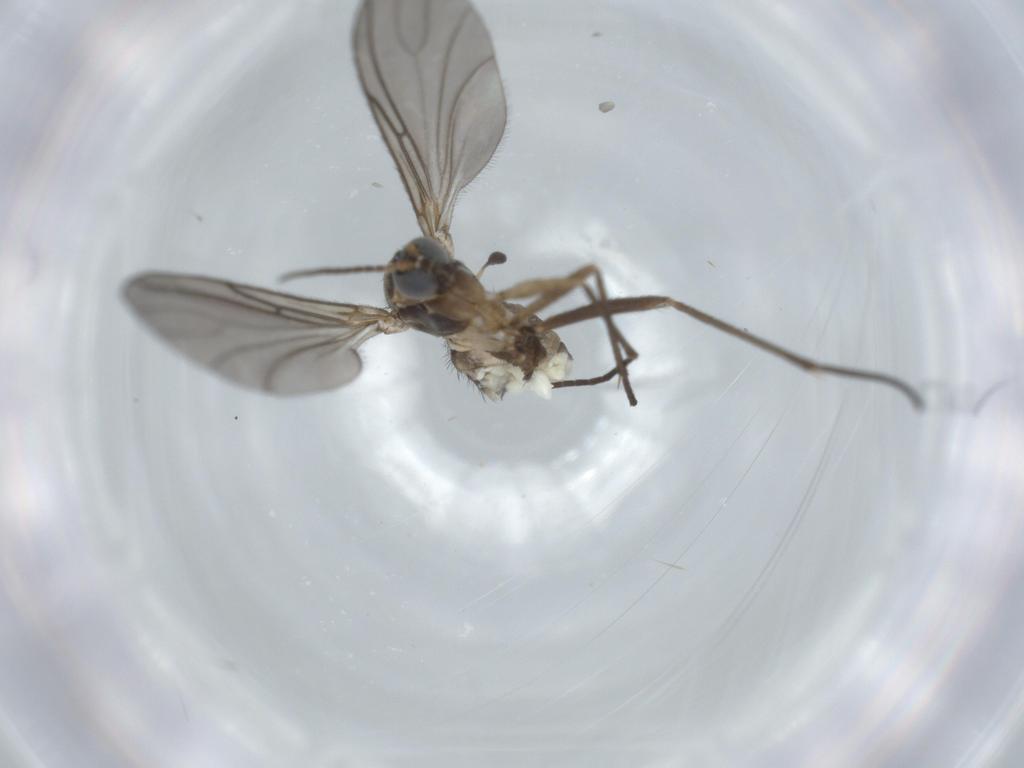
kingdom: Animalia
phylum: Arthropoda
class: Insecta
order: Diptera
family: Sciaridae
